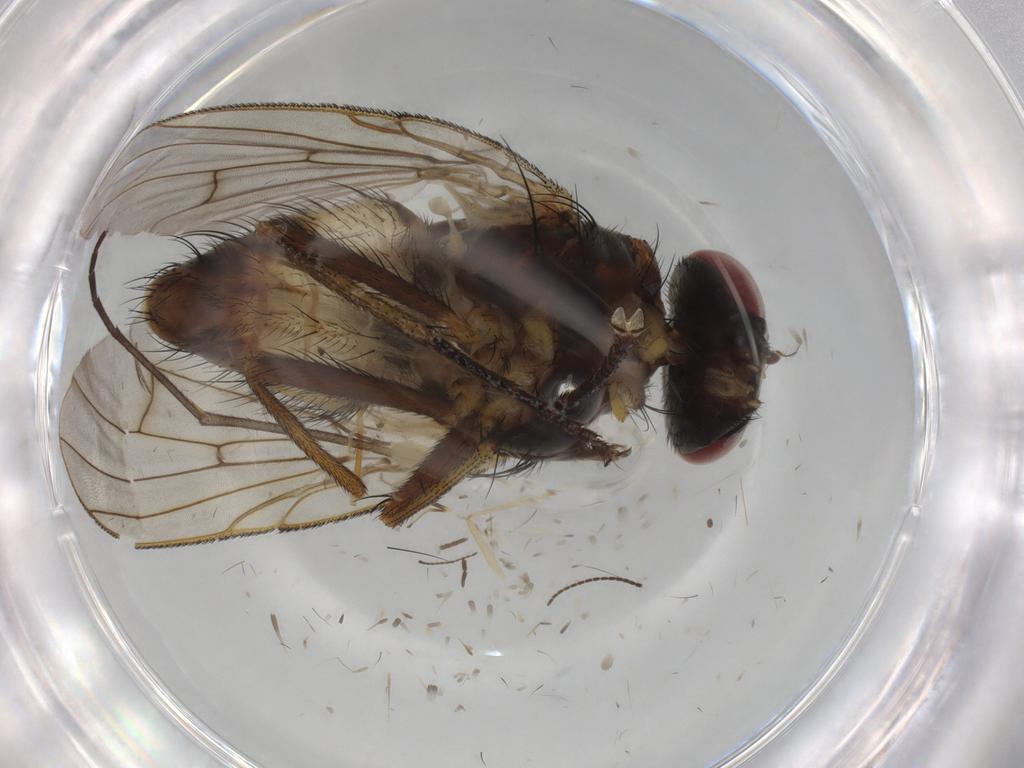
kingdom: Animalia
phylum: Arthropoda
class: Insecta
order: Diptera
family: Muscidae
